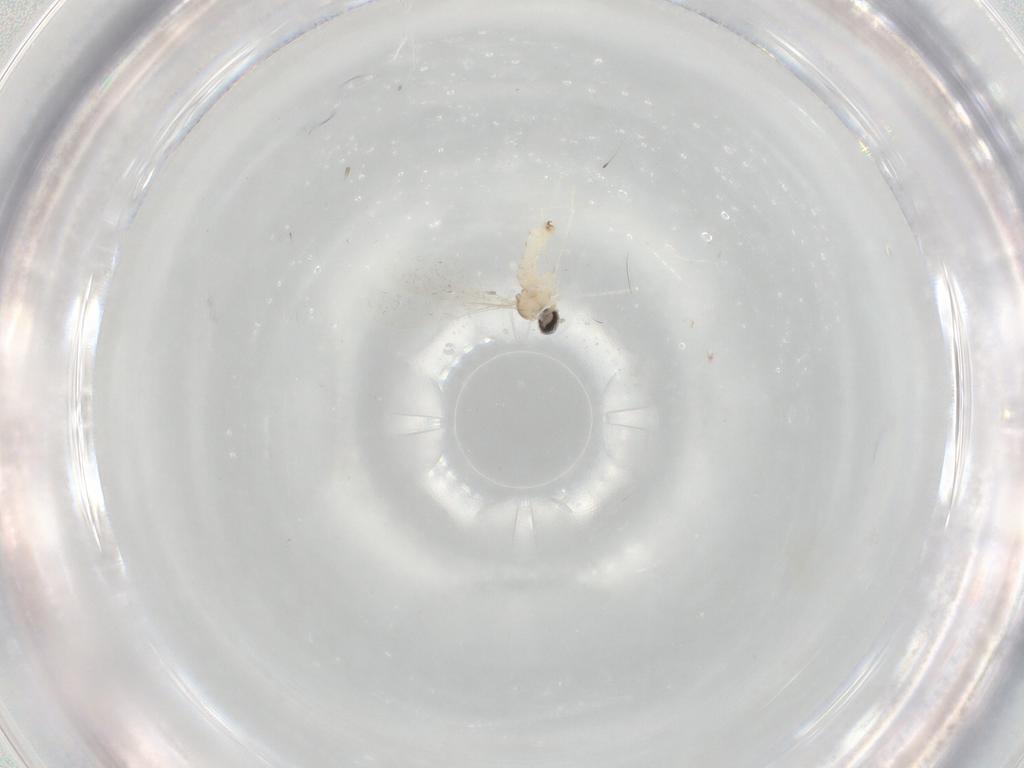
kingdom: Animalia
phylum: Arthropoda
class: Insecta
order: Diptera
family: Cecidomyiidae
